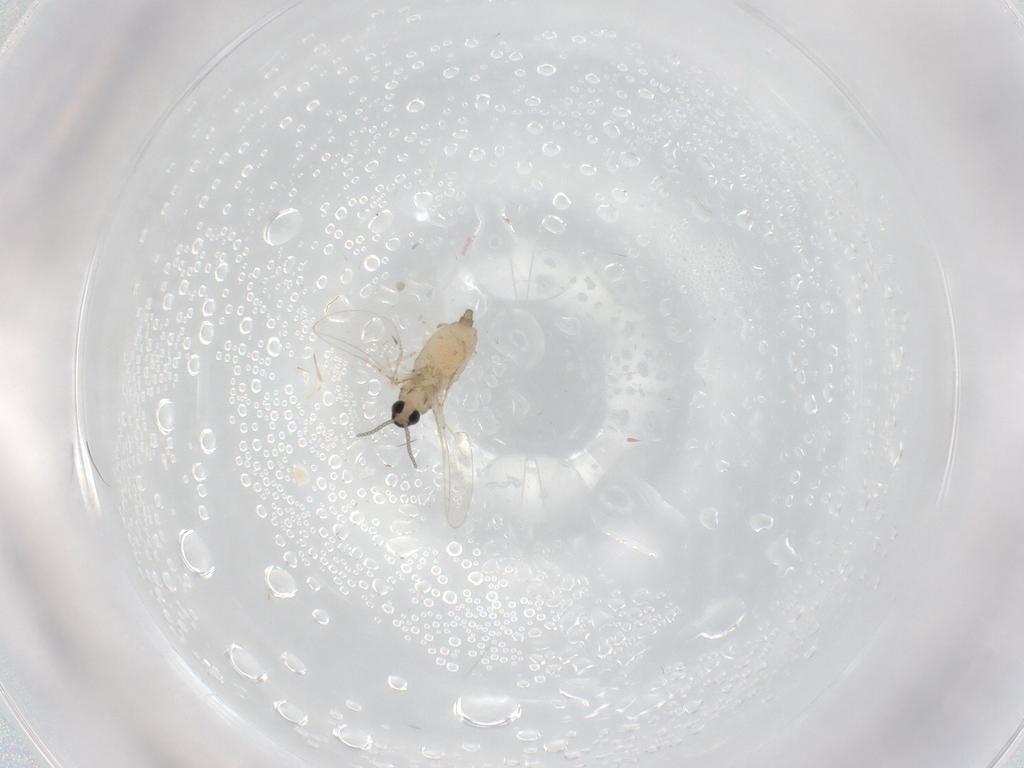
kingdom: Animalia
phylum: Arthropoda
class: Insecta
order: Diptera
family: Cecidomyiidae
